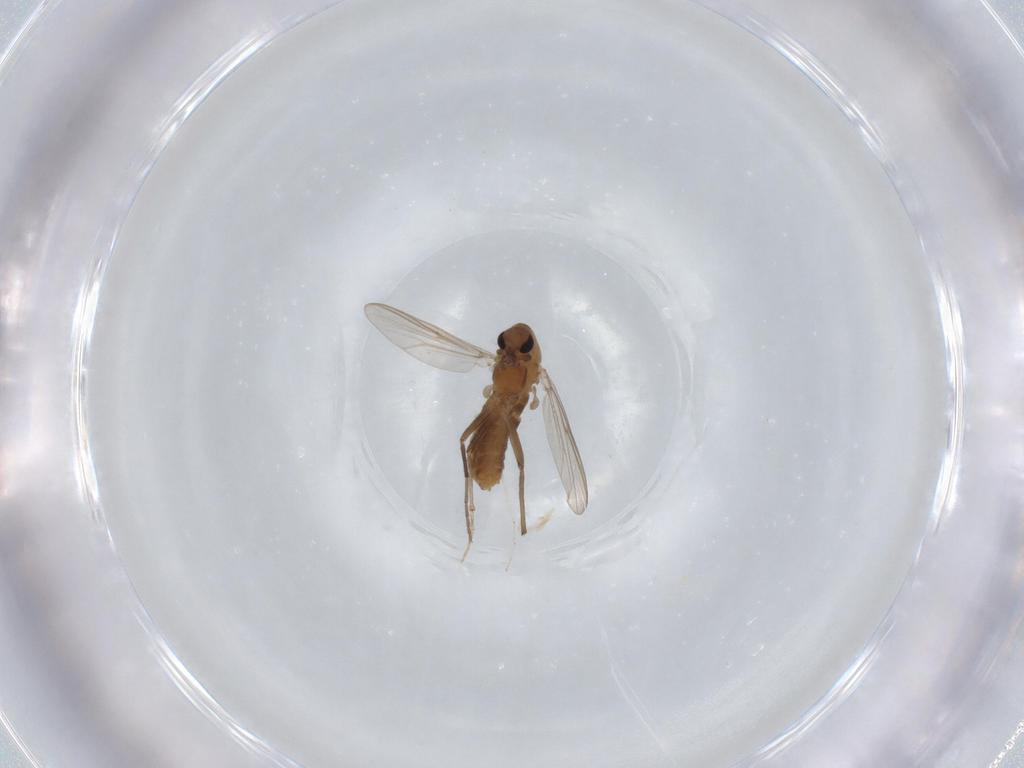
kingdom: Animalia
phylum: Arthropoda
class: Insecta
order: Diptera
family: Chironomidae
